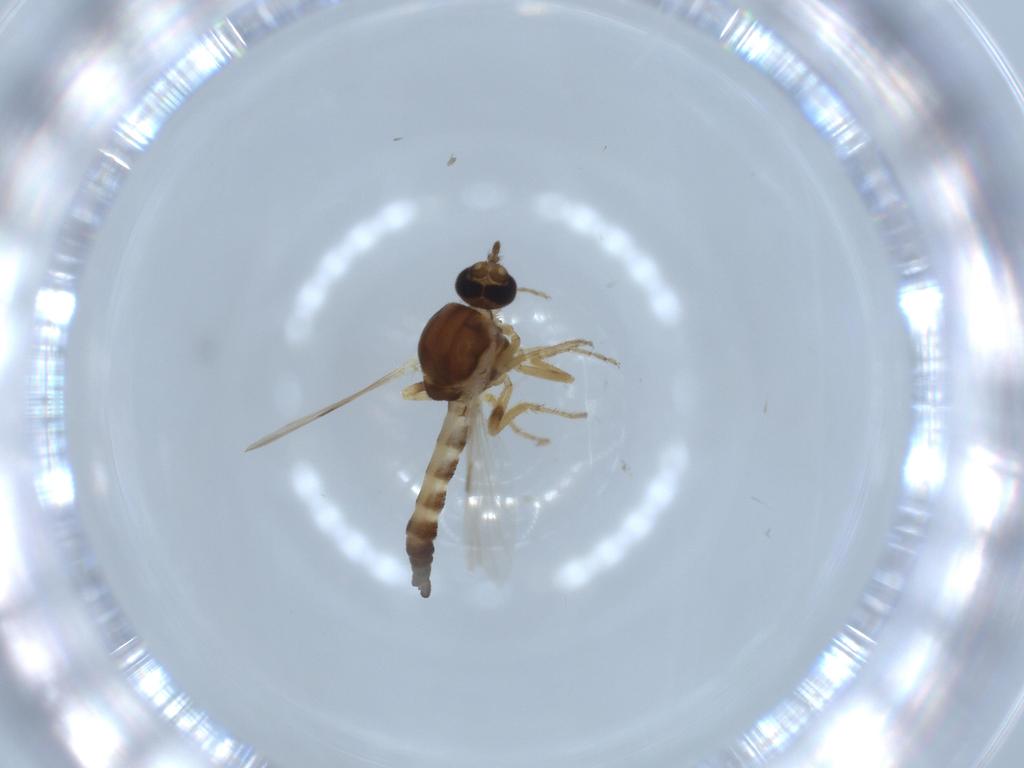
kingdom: Animalia
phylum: Arthropoda
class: Insecta
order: Diptera
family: Ceratopogonidae
